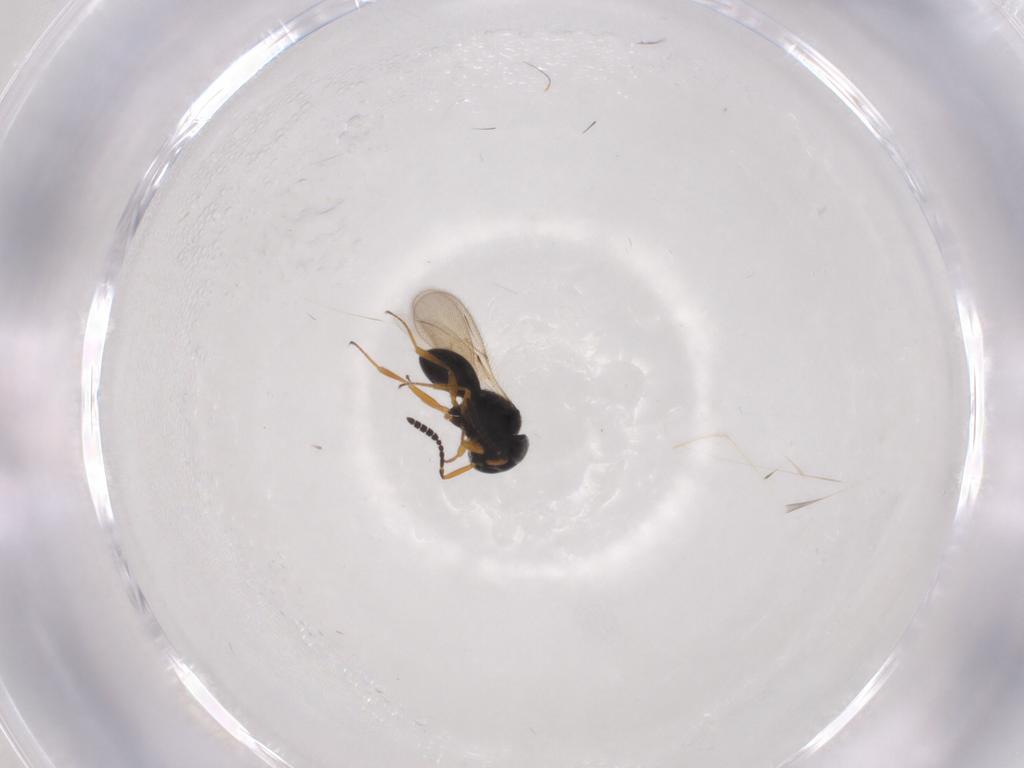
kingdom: Animalia
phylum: Arthropoda
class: Insecta
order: Hymenoptera
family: Scelionidae
